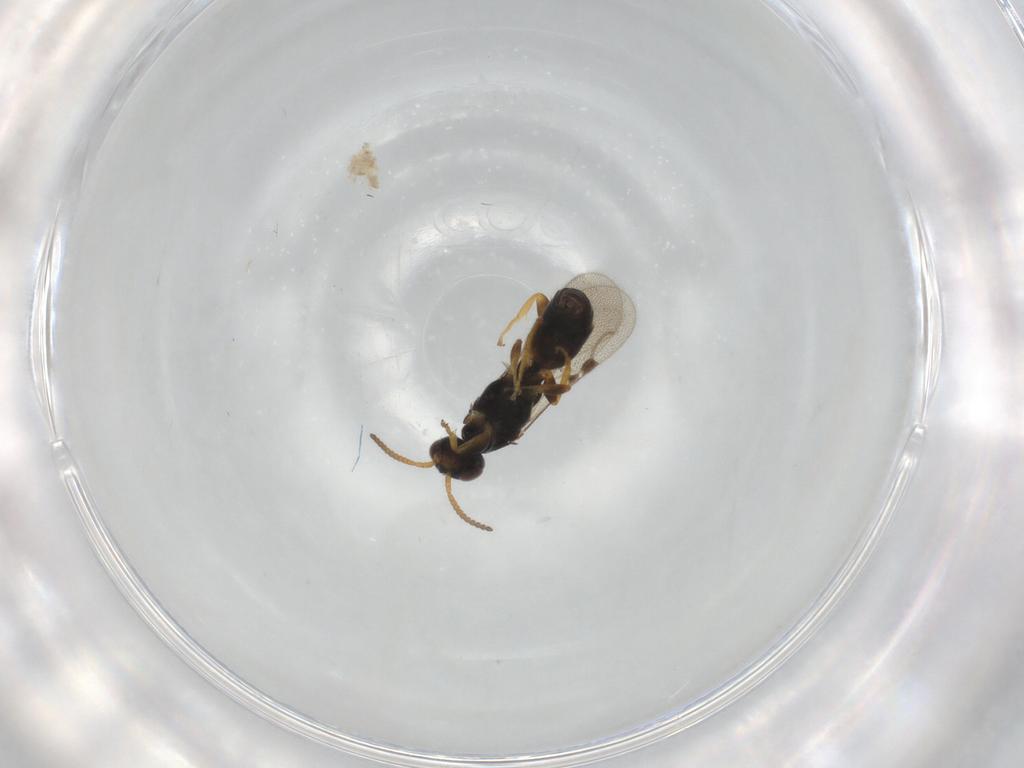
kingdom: Animalia
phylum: Arthropoda
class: Insecta
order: Hymenoptera
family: Bethylidae
